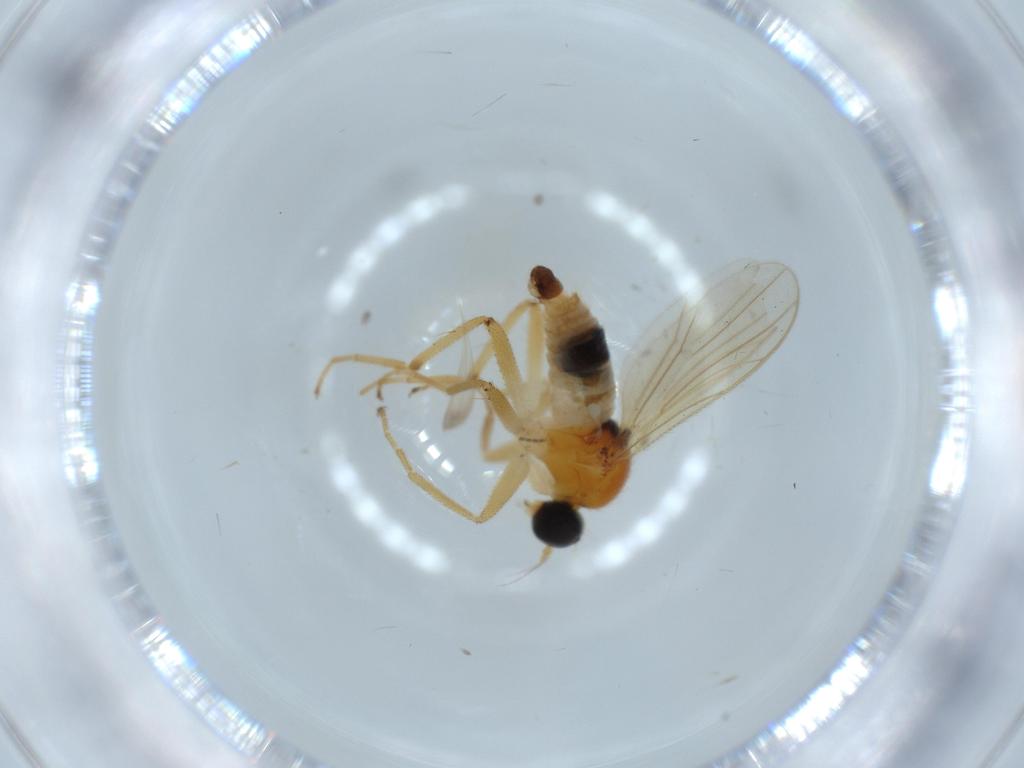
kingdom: Animalia
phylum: Arthropoda
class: Insecta
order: Diptera
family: Hybotidae
